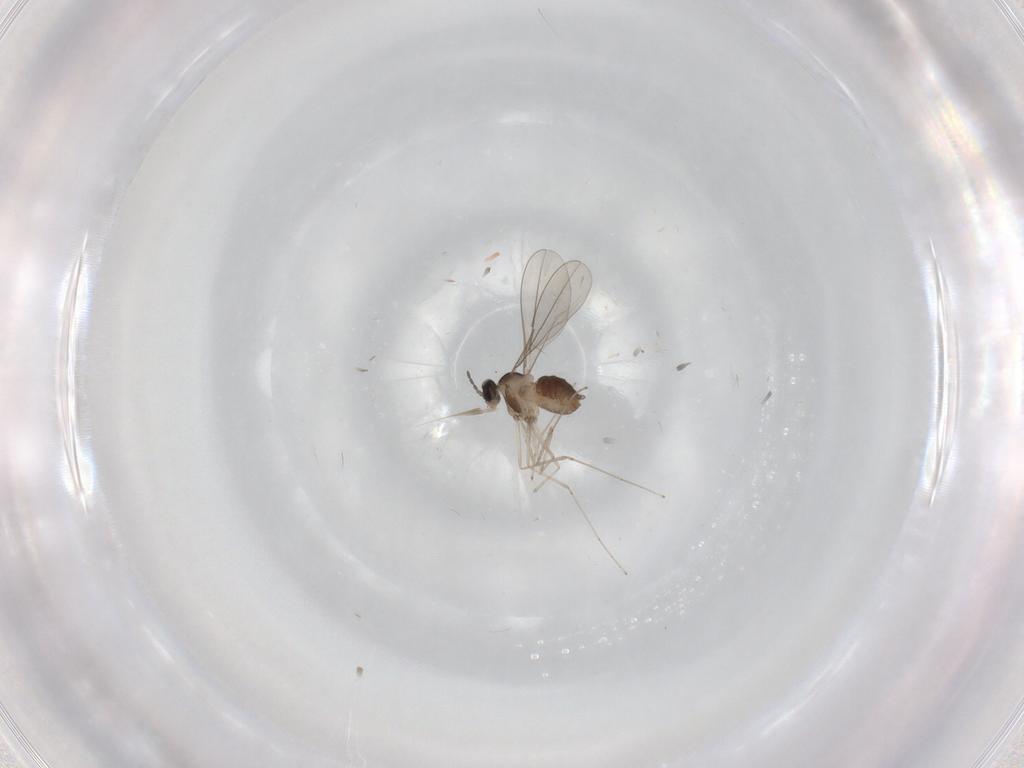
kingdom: Animalia
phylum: Arthropoda
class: Insecta
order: Diptera
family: Cecidomyiidae
